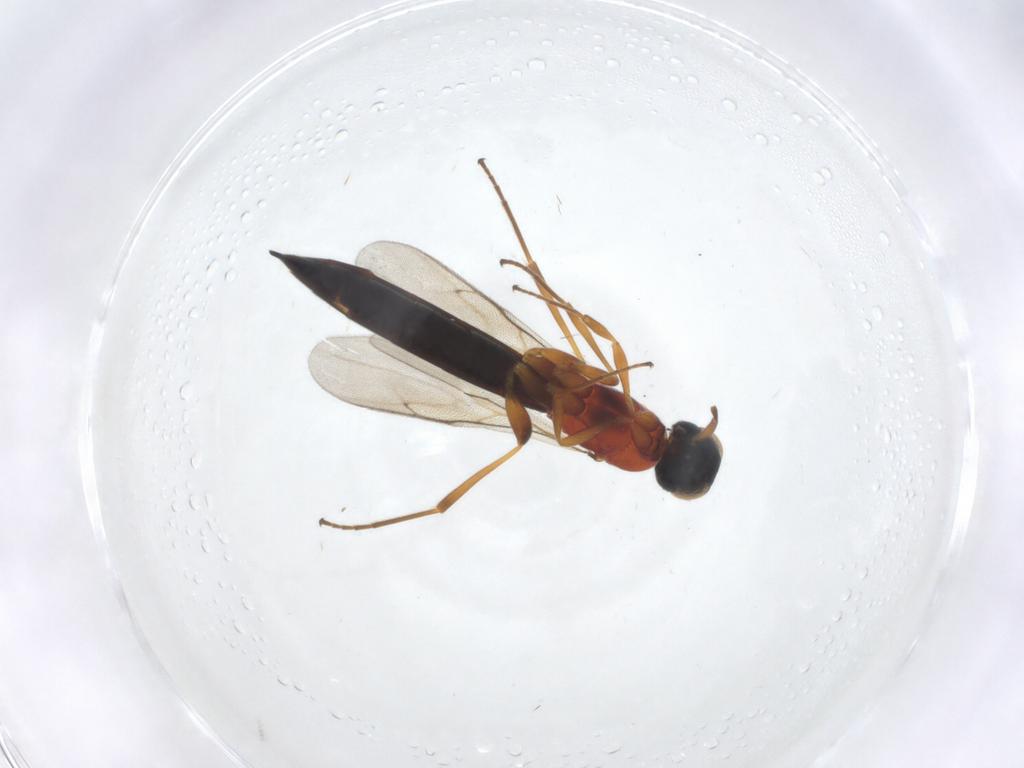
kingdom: Animalia
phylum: Arthropoda
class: Insecta
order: Hymenoptera
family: Scelionidae
